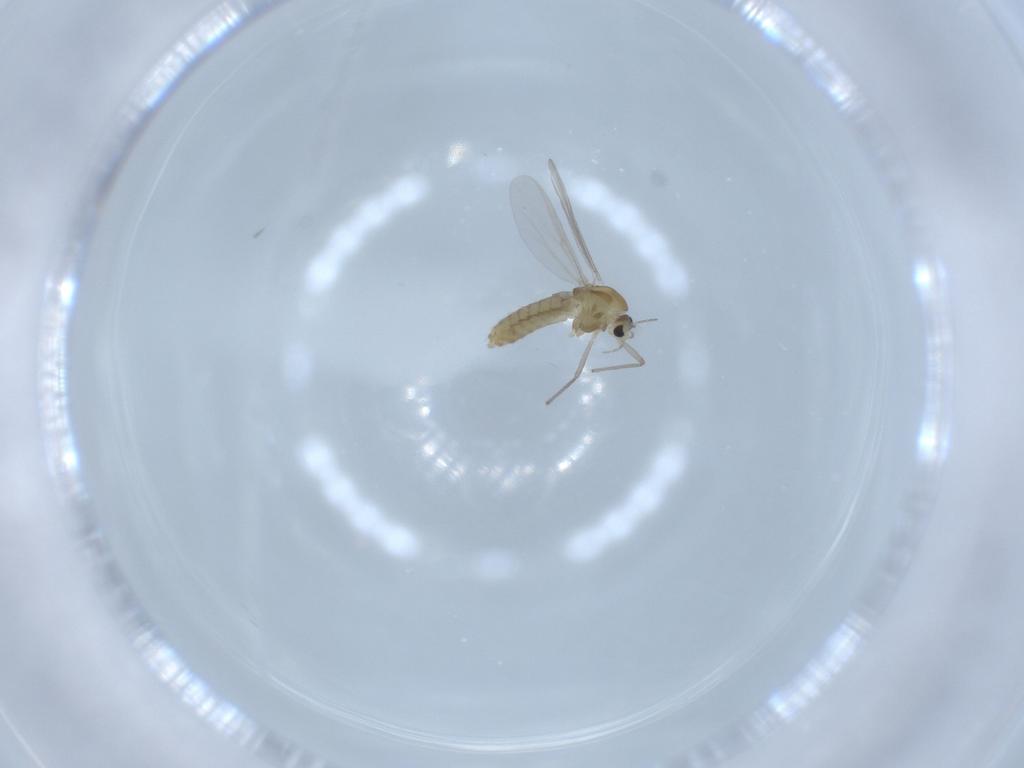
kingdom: Animalia
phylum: Arthropoda
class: Insecta
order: Diptera
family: Chironomidae
